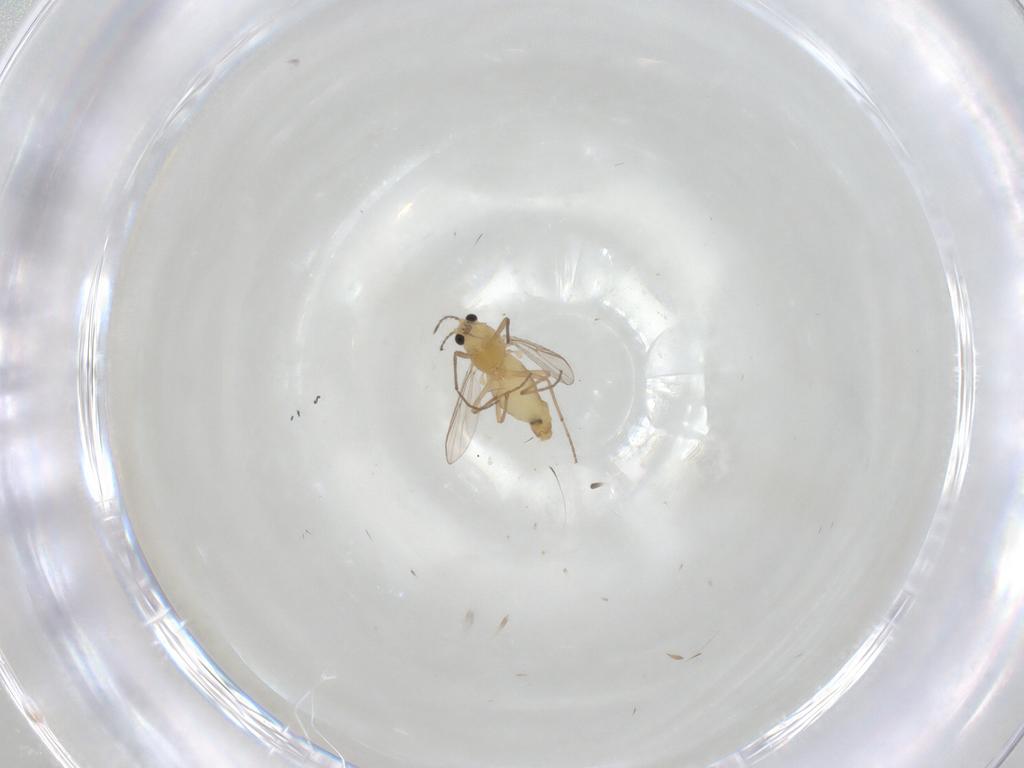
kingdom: Animalia
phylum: Arthropoda
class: Insecta
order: Diptera
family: Chironomidae
